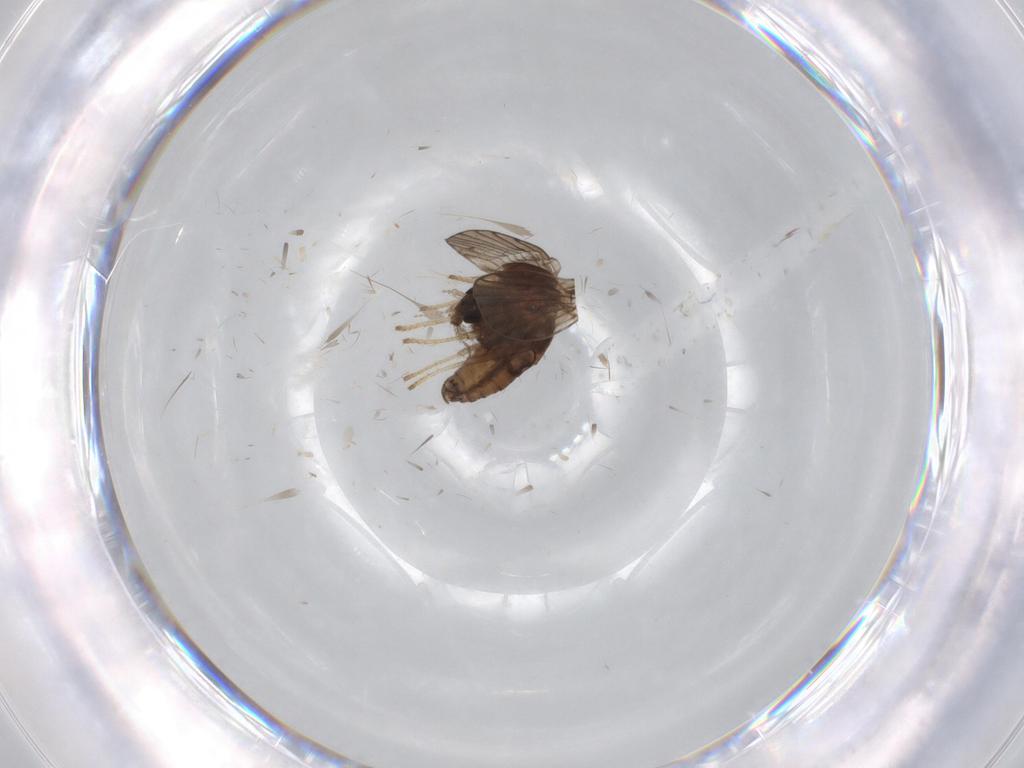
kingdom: Animalia
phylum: Arthropoda
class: Insecta
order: Diptera
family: Psychodidae
